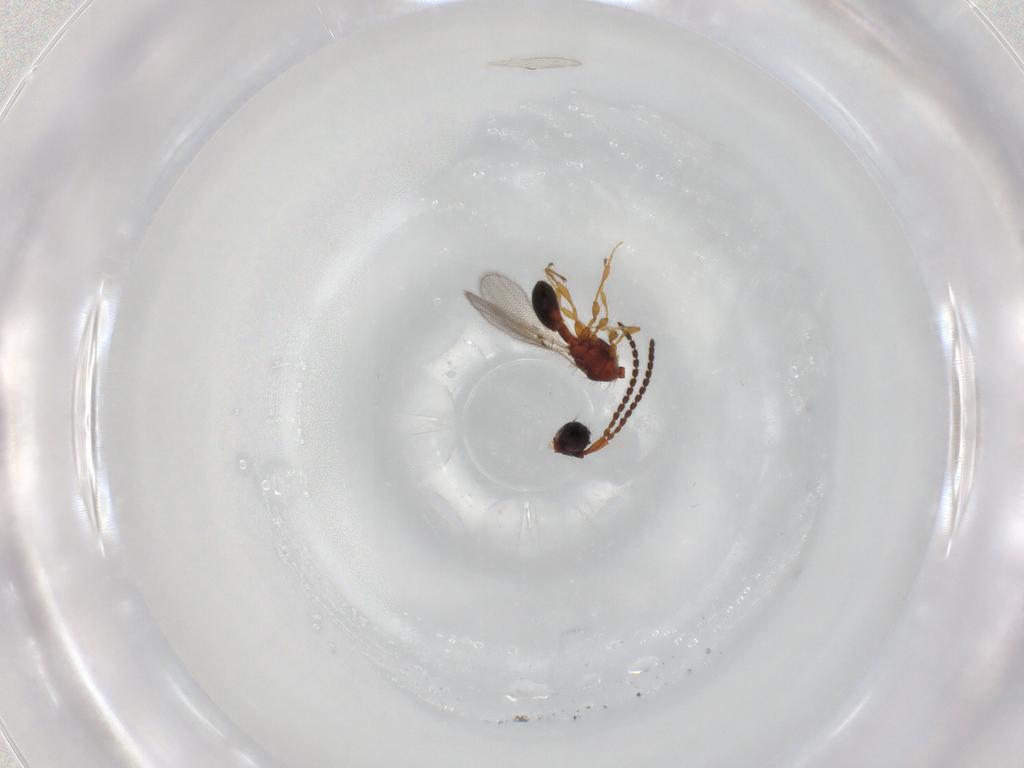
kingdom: Animalia
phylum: Arthropoda
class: Insecta
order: Hymenoptera
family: Diapriidae
